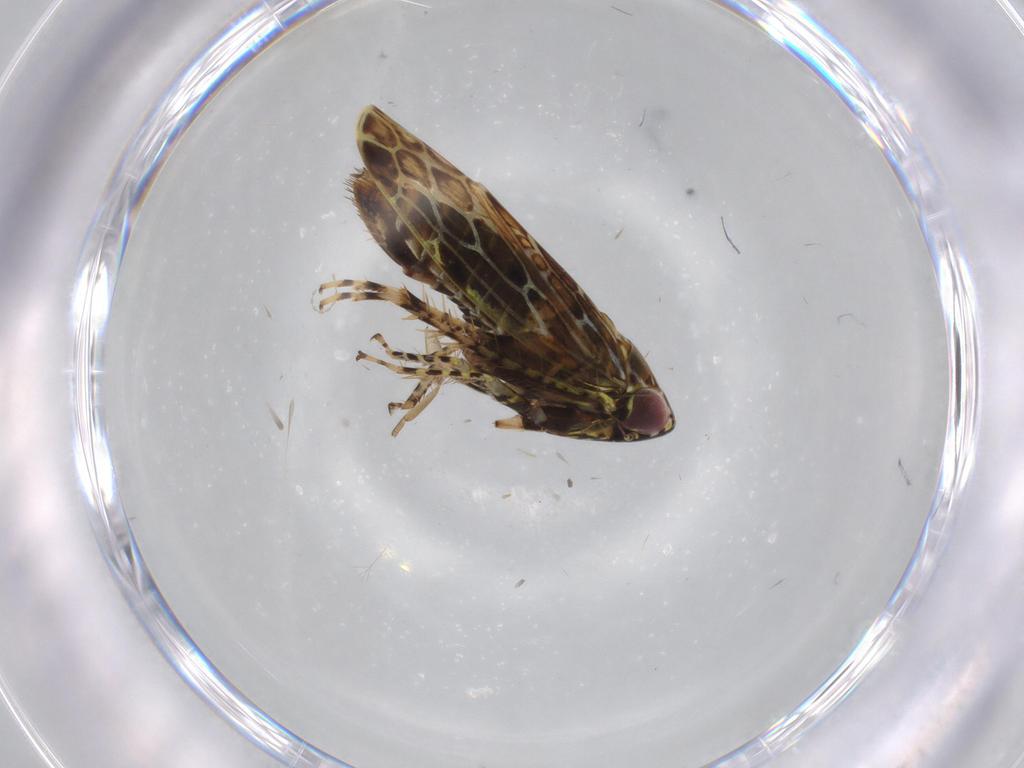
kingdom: Animalia
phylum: Arthropoda
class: Insecta
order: Hemiptera
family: Cicadellidae
